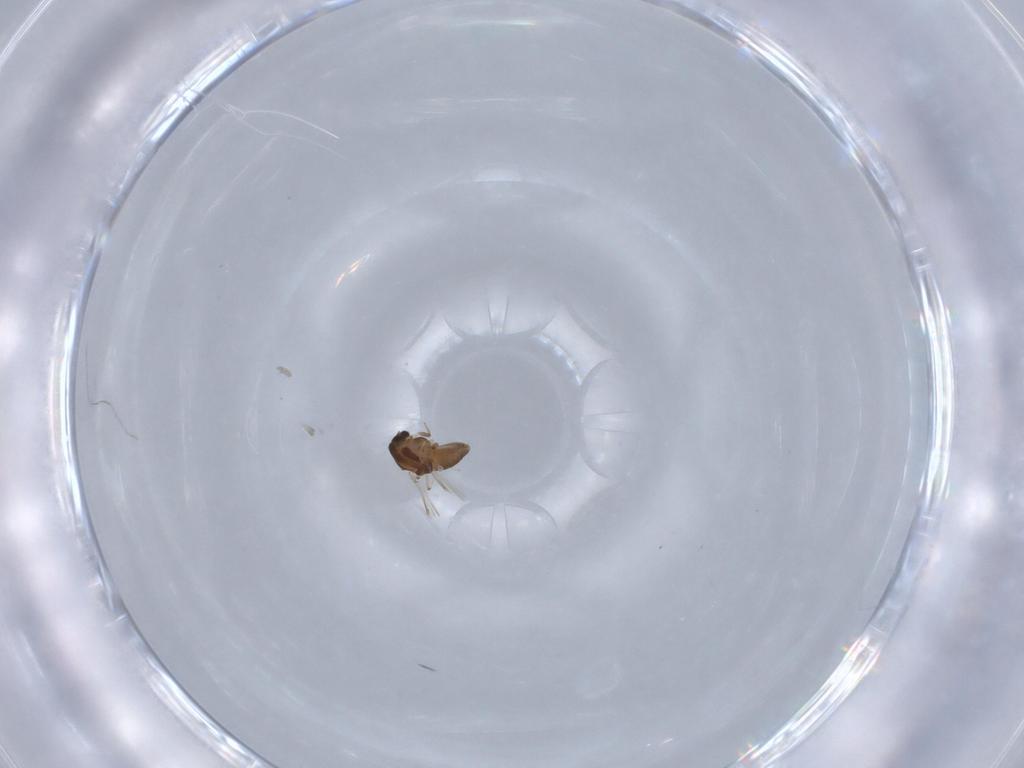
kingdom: Animalia
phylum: Arthropoda
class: Insecta
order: Diptera
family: Chironomidae
